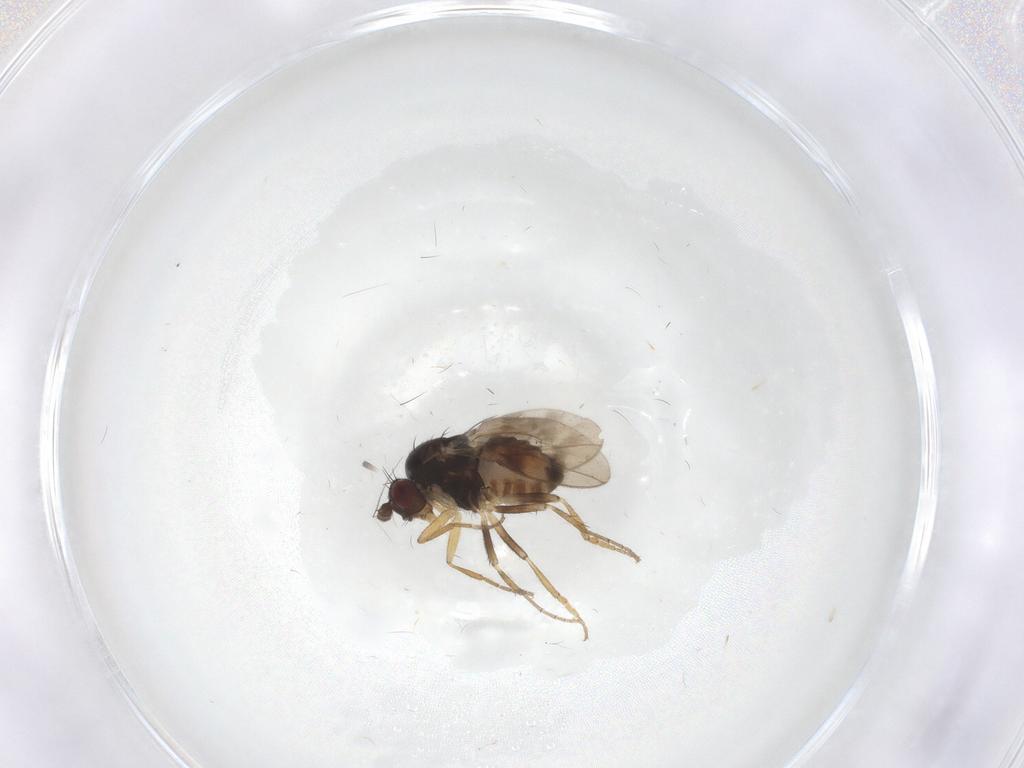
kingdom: Animalia
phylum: Arthropoda
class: Insecta
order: Diptera
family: Sphaeroceridae
